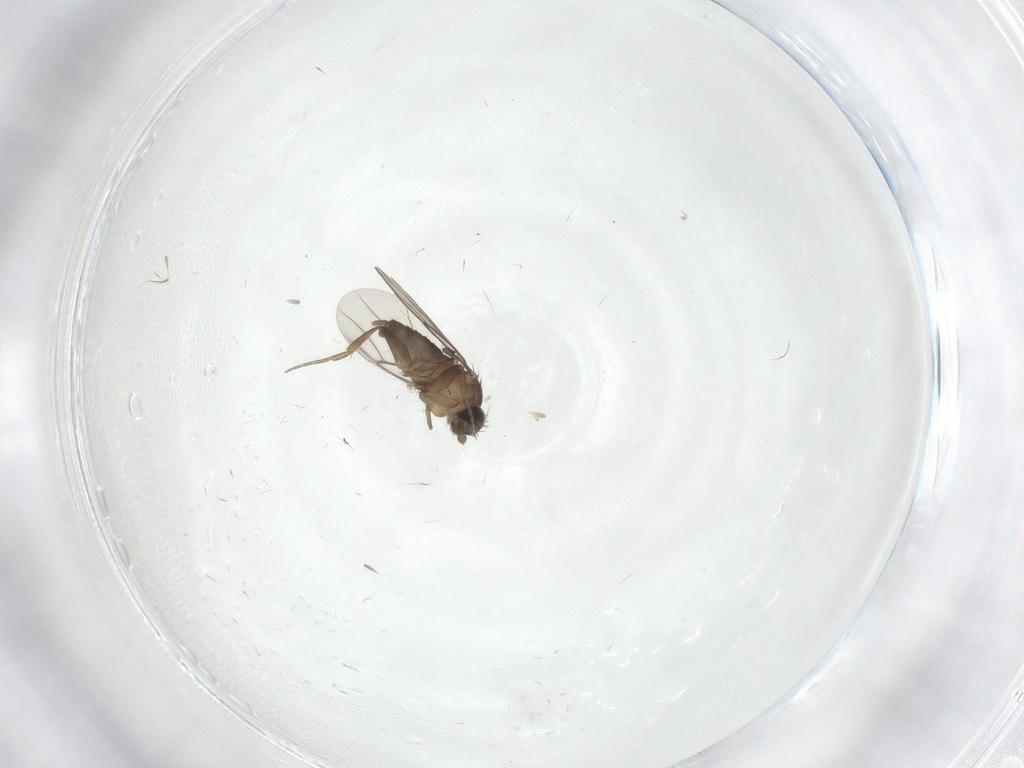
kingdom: Animalia
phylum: Arthropoda
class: Insecta
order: Diptera
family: Phoridae
